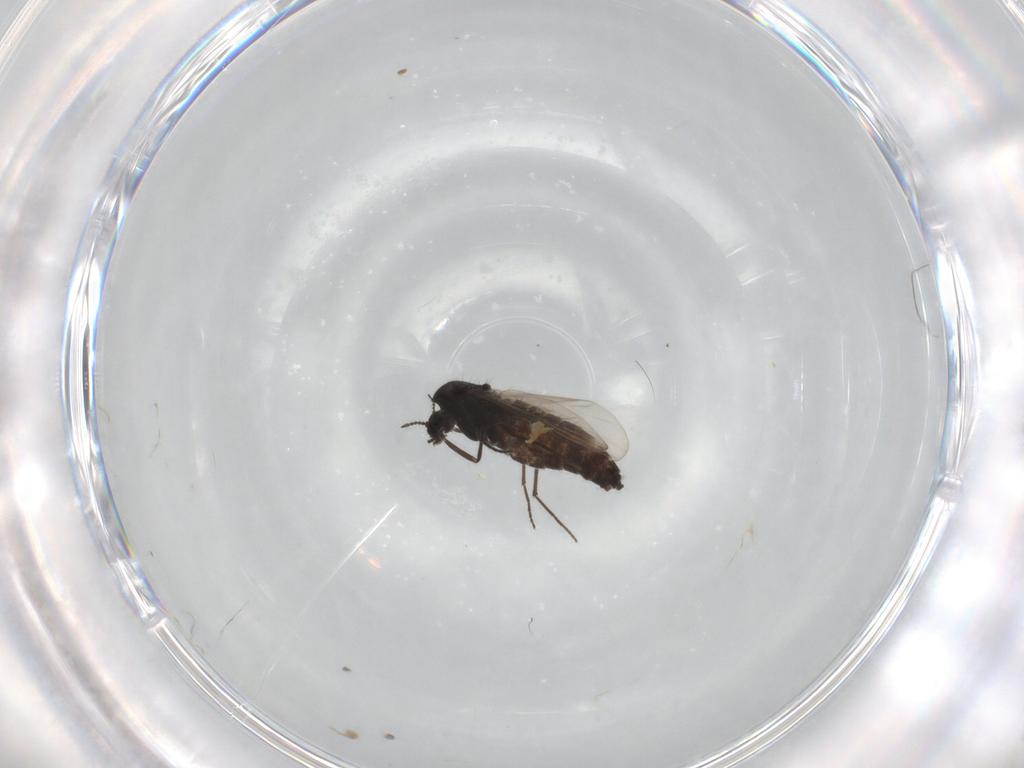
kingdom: Animalia
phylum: Arthropoda
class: Insecta
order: Diptera
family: Chironomidae
